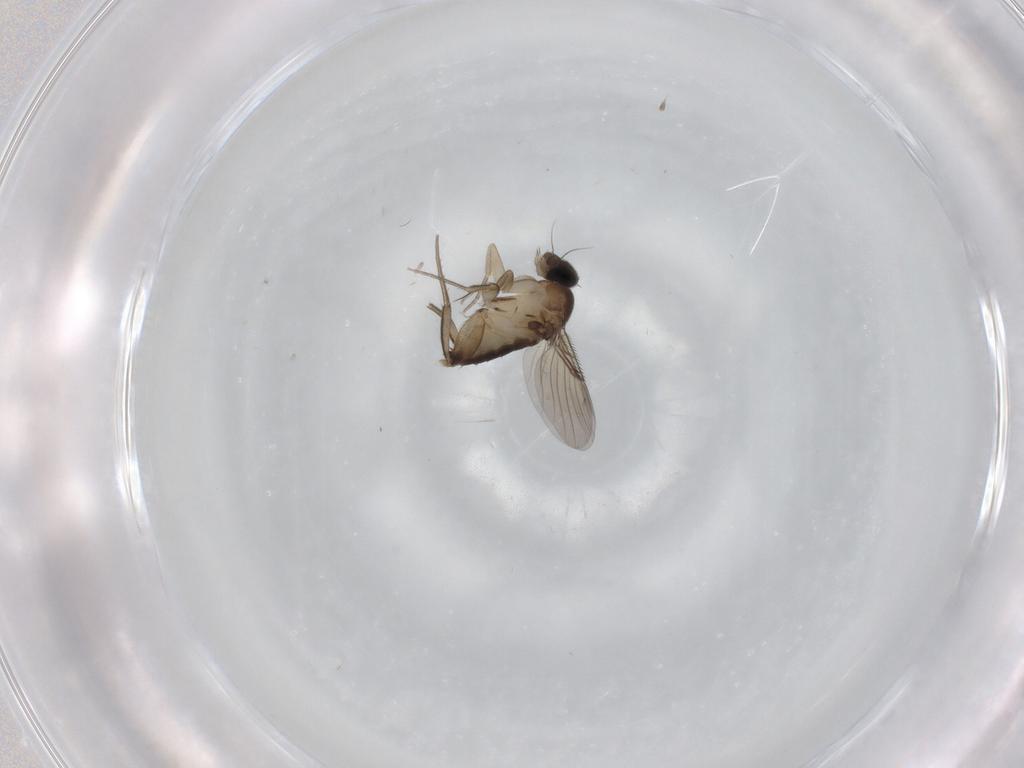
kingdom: Animalia
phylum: Arthropoda
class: Insecta
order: Diptera
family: Phoridae
